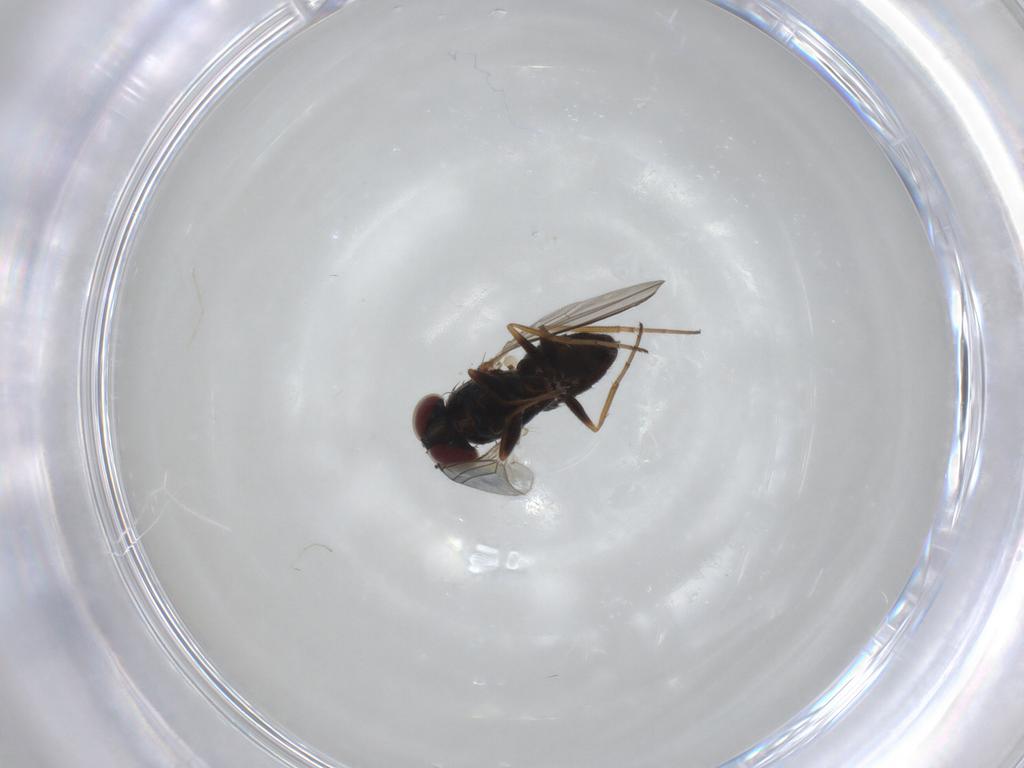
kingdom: Animalia
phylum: Arthropoda
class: Insecta
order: Diptera
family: Dolichopodidae
